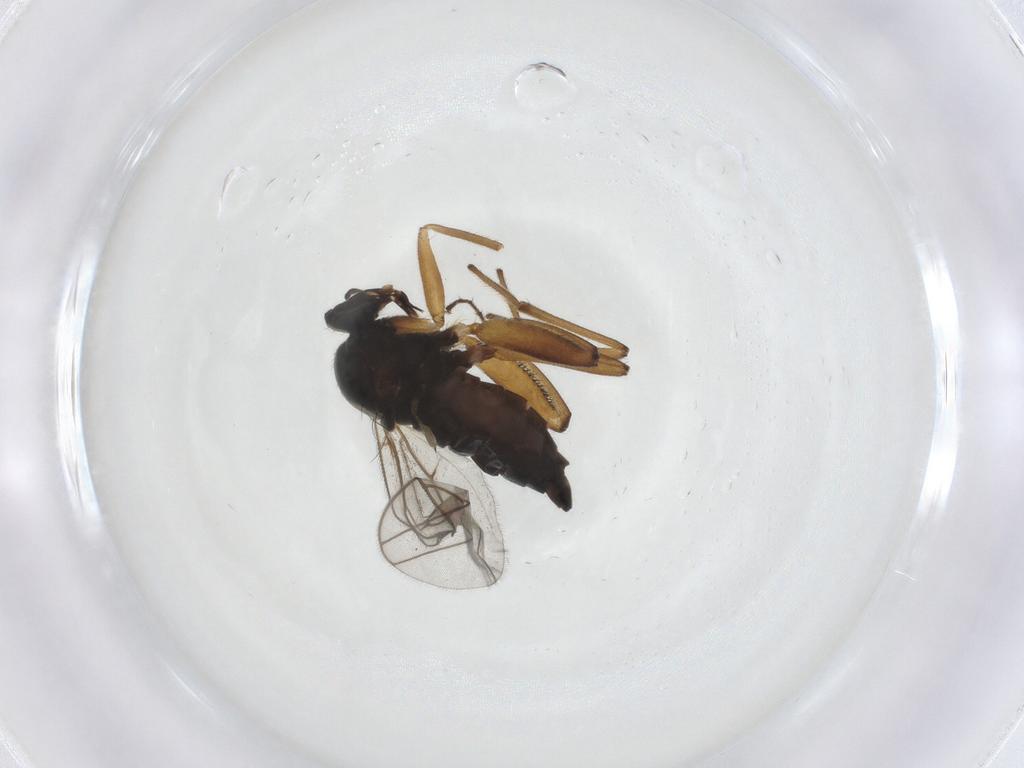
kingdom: Animalia
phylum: Arthropoda
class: Insecta
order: Diptera
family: Hybotidae
